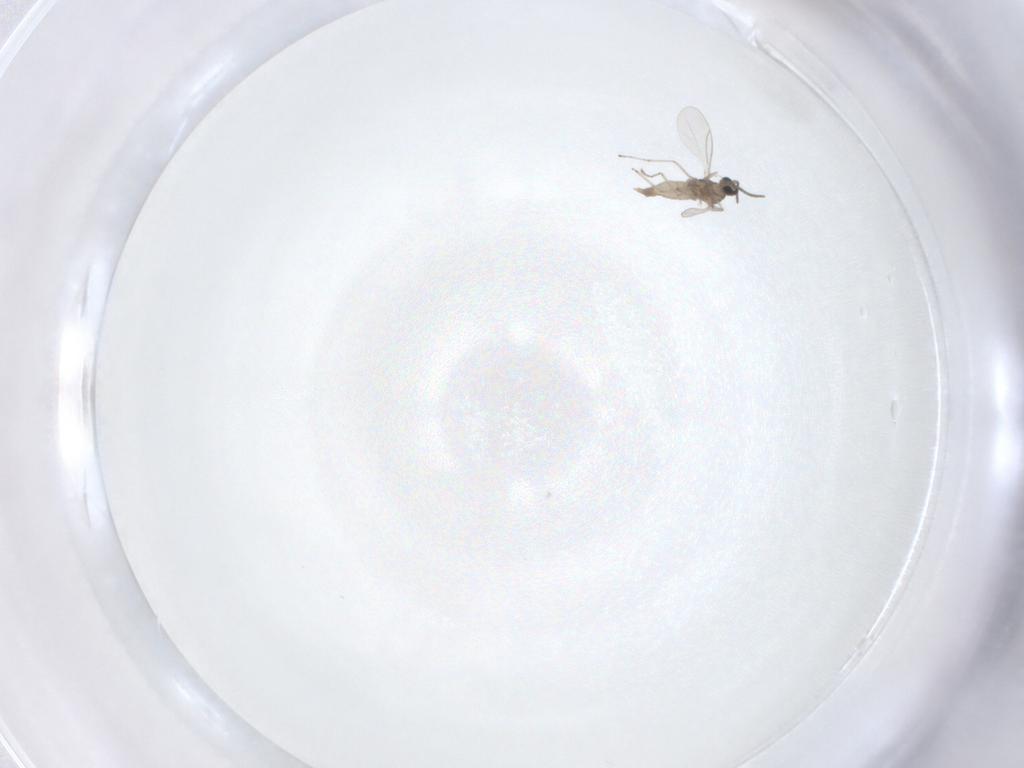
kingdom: Animalia
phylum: Arthropoda
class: Insecta
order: Diptera
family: Cecidomyiidae
